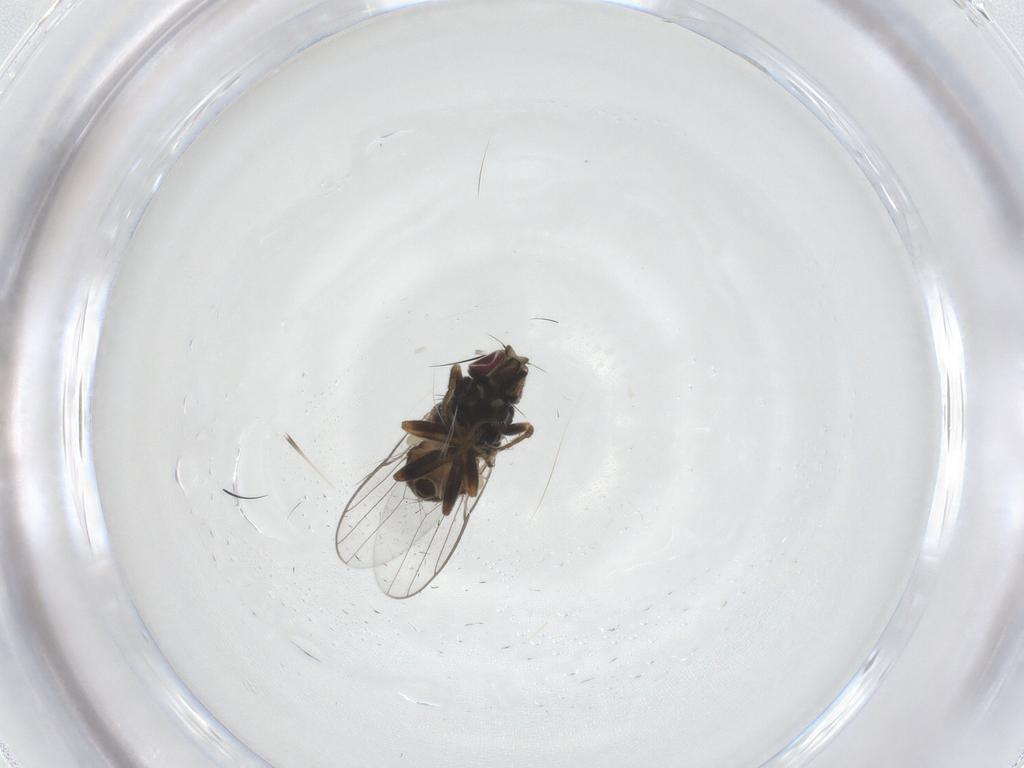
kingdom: Animalia
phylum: Arthropoda
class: Insecta
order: Diptera
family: Chloropidae
